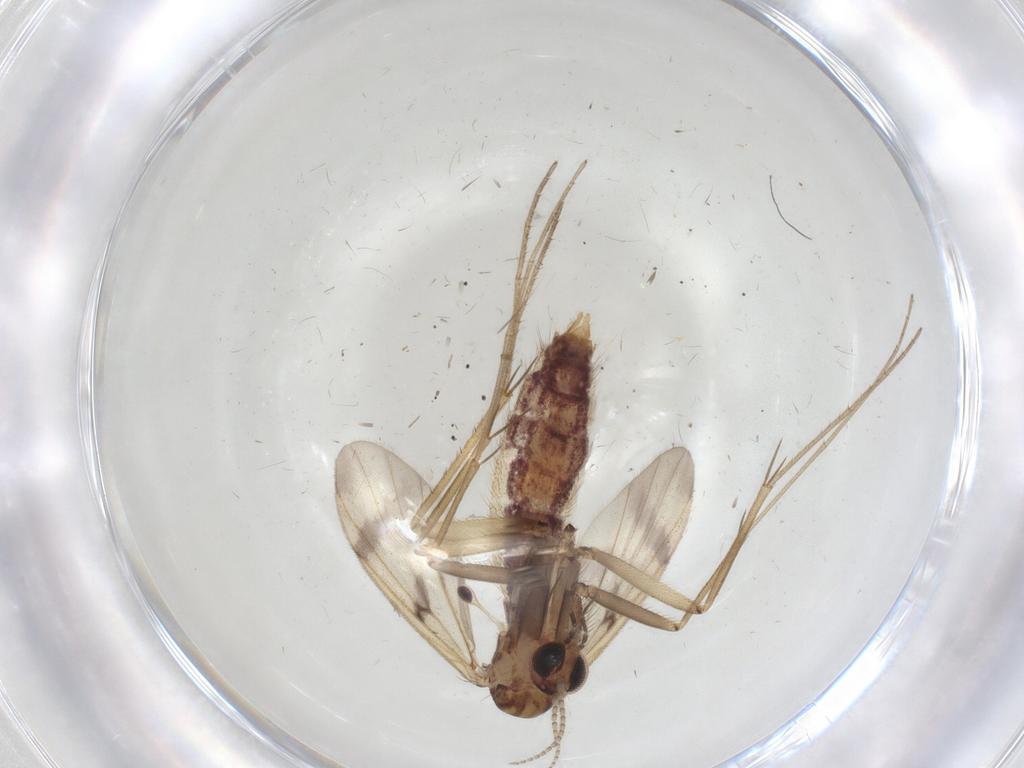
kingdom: Animalia
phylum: Arthropoda
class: Insecta
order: Diptera
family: Mycetophilidae
